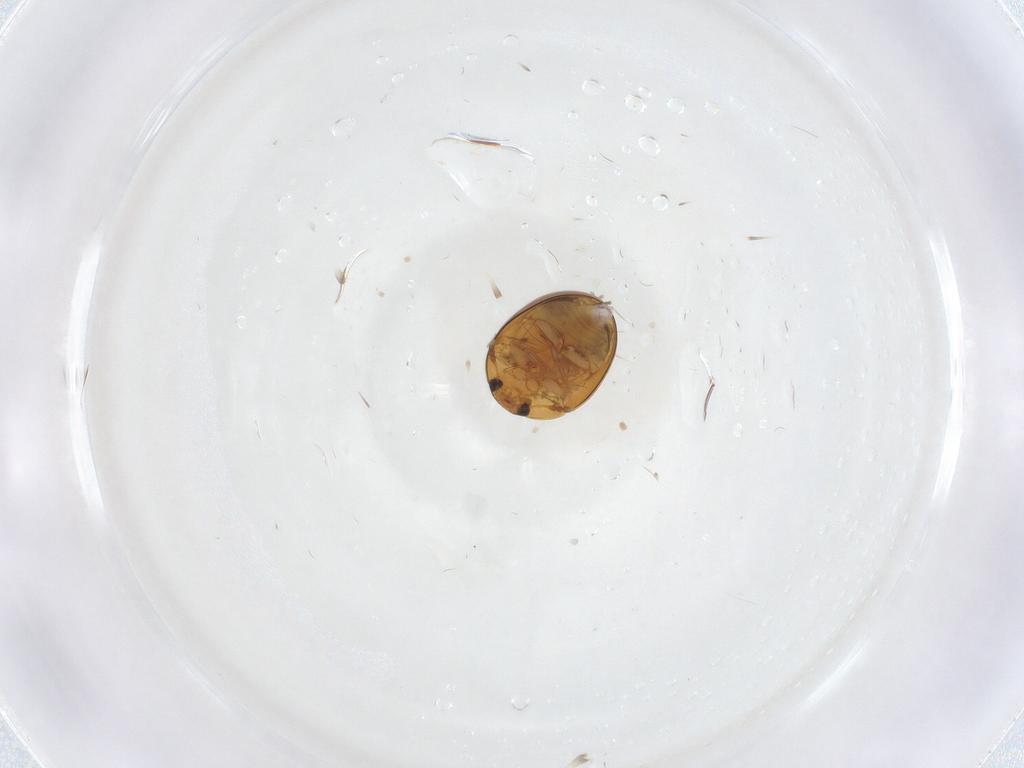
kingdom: Animalia
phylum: Arthropoda
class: Insecta
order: Coleoptera
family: Phalacridae
